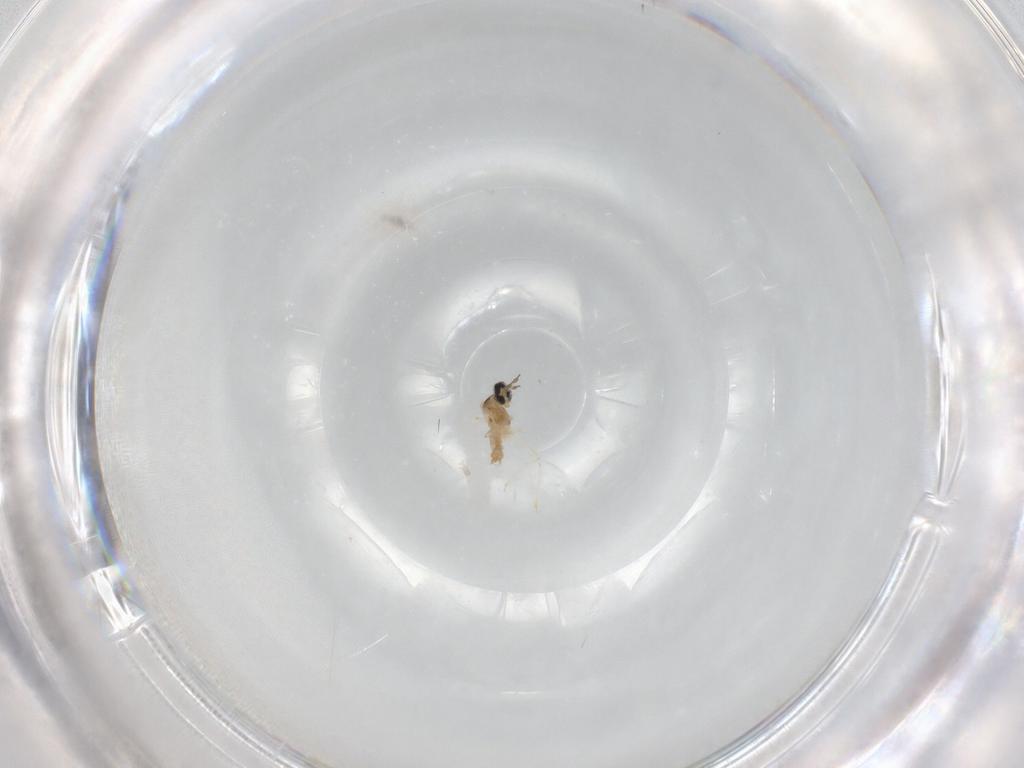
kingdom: Animalia
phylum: Arthropoda
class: Insecta
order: Diptera
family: Cecidomyiidae
